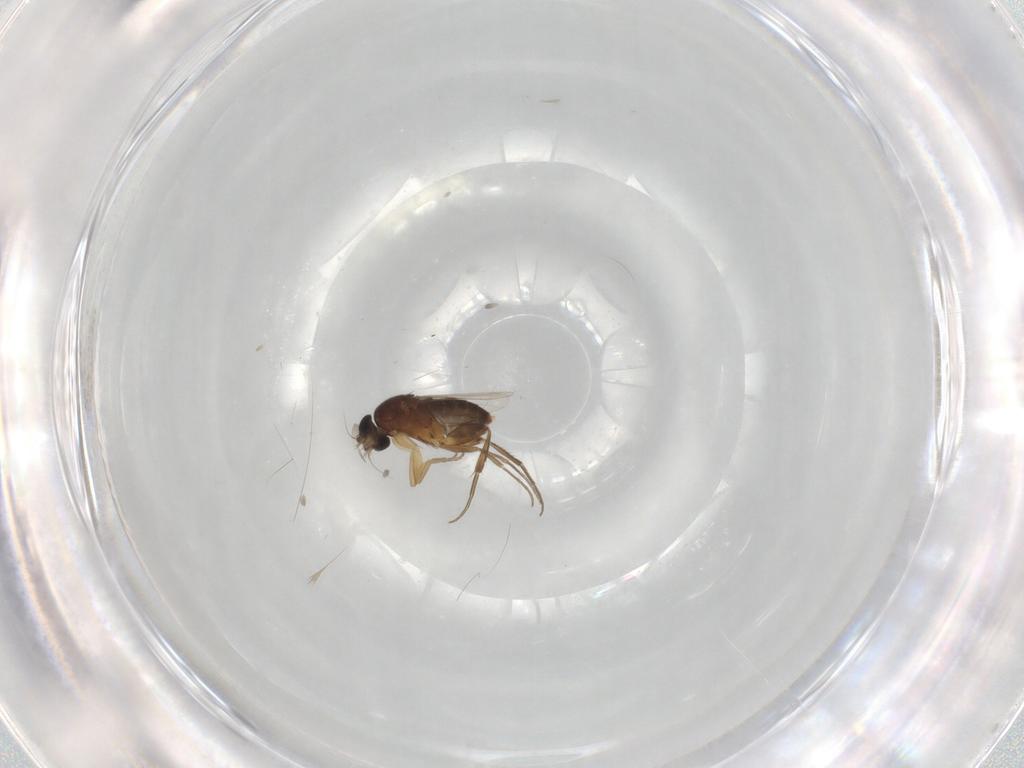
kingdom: Animalia
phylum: Arthropoda
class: Insecta
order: Diptera
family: Phoridae
